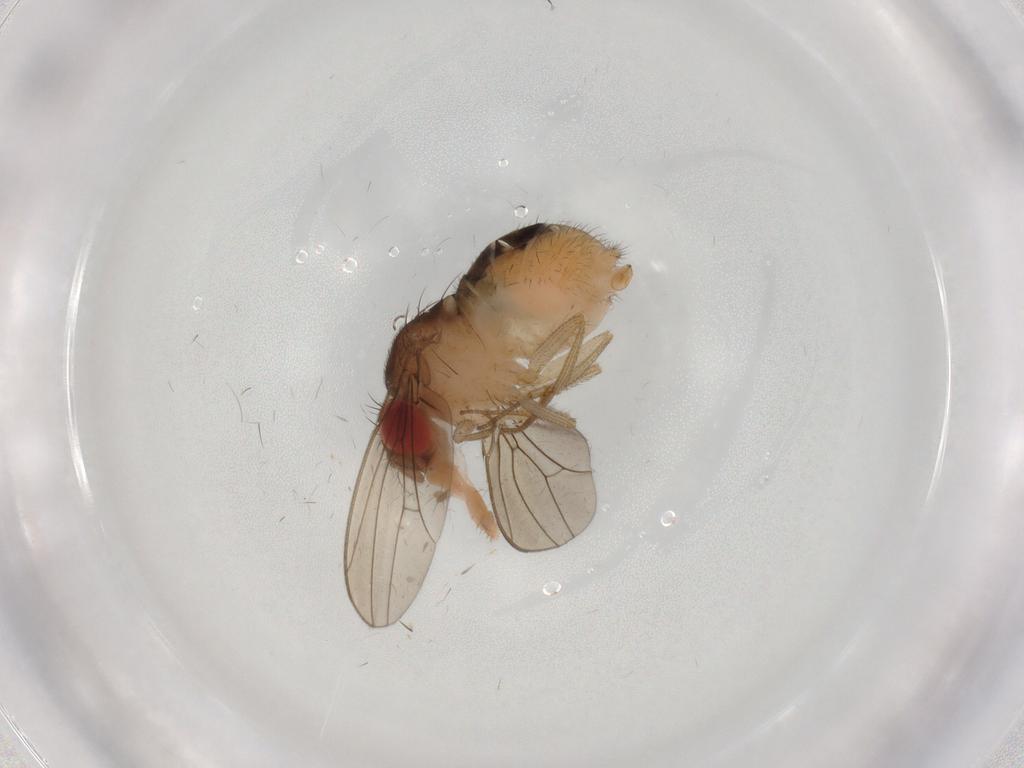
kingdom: Animalia
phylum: Arthropoda
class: Insecta
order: Diptera
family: Drosophilidae
